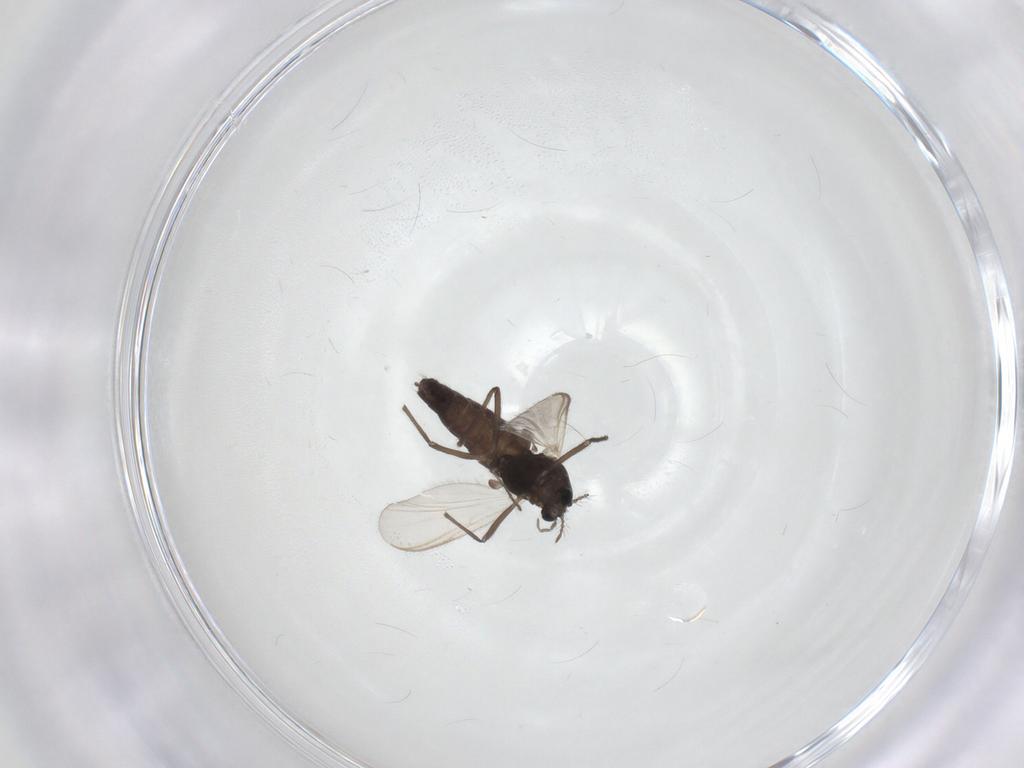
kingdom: Animalia
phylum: Arthropoda
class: Insecta
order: Diptera
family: Chironomidae
